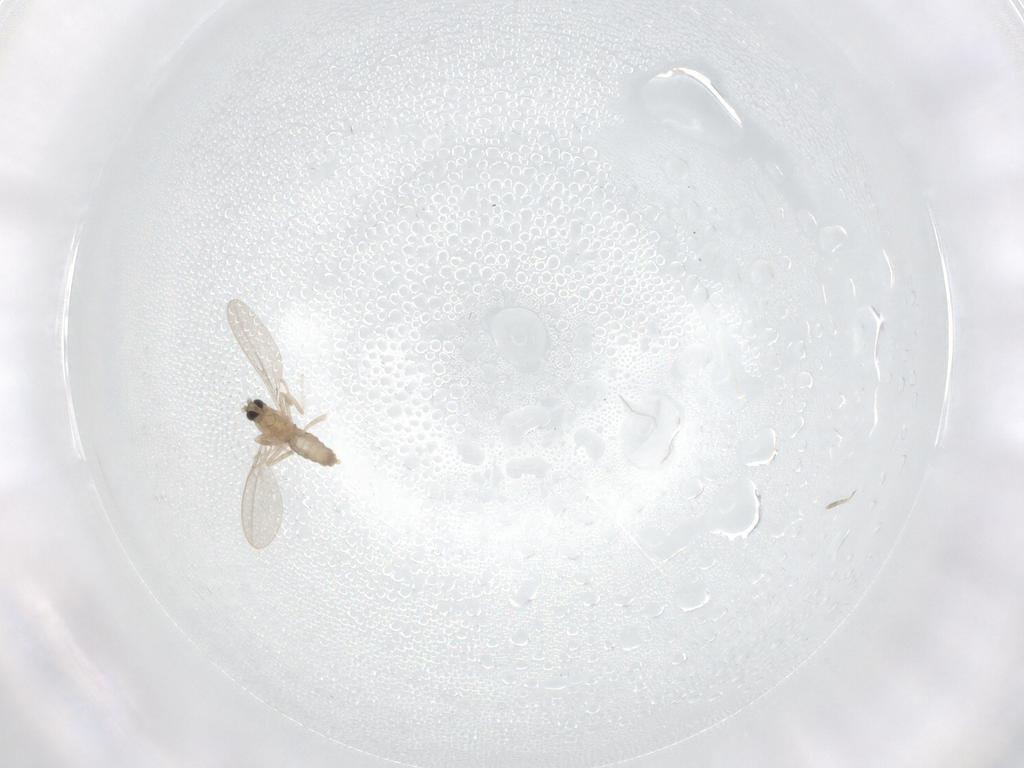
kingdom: Animalia
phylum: Arthropoda
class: Insecta
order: Diptera
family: Cecidomyiidae
